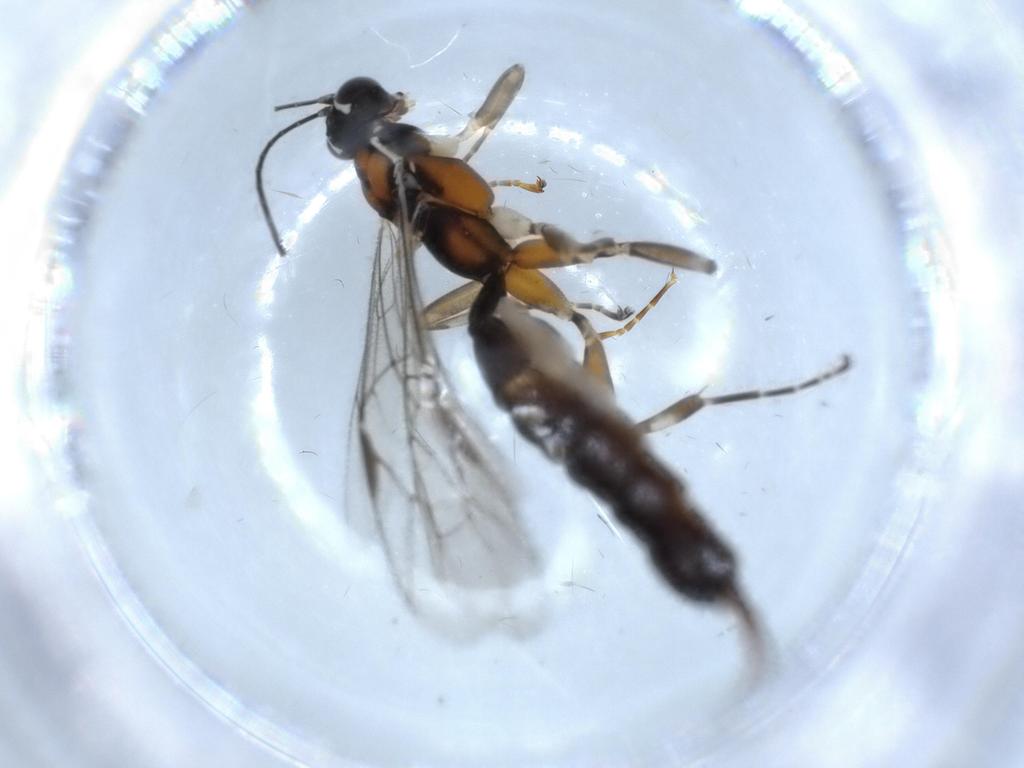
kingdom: Animalia
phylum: Arthropoda
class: Insecta
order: Hymenoptera
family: Ichneumonidae
